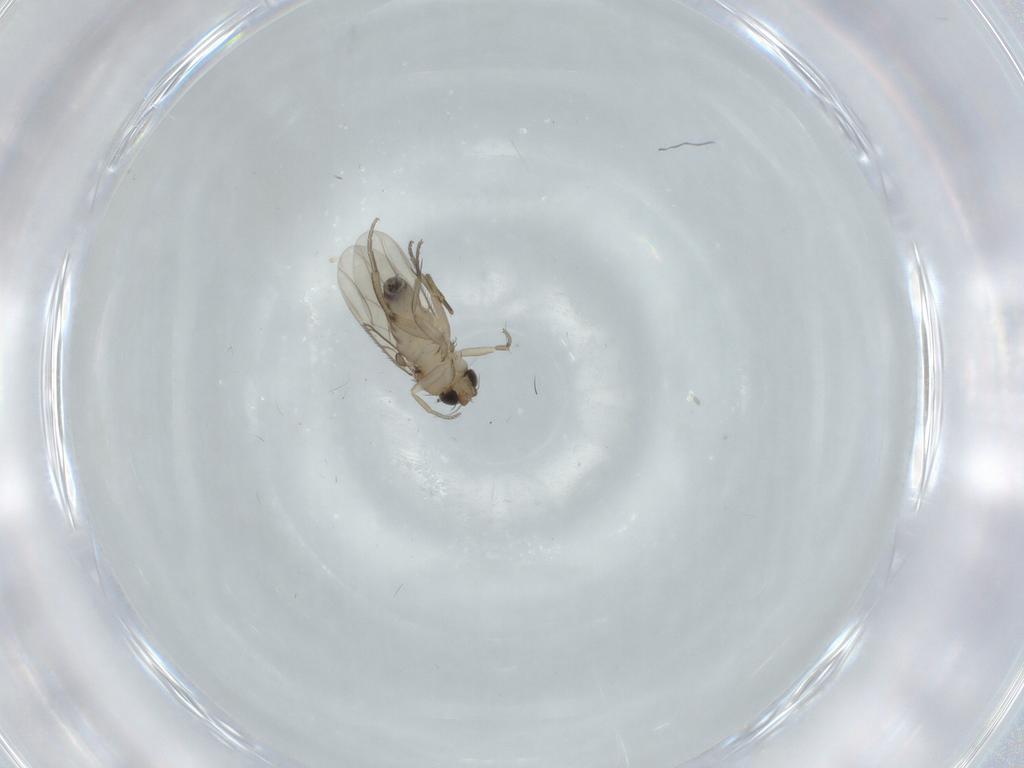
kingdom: Animalia
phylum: Arthropoda
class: Insecta
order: Diptera
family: Phoridae
